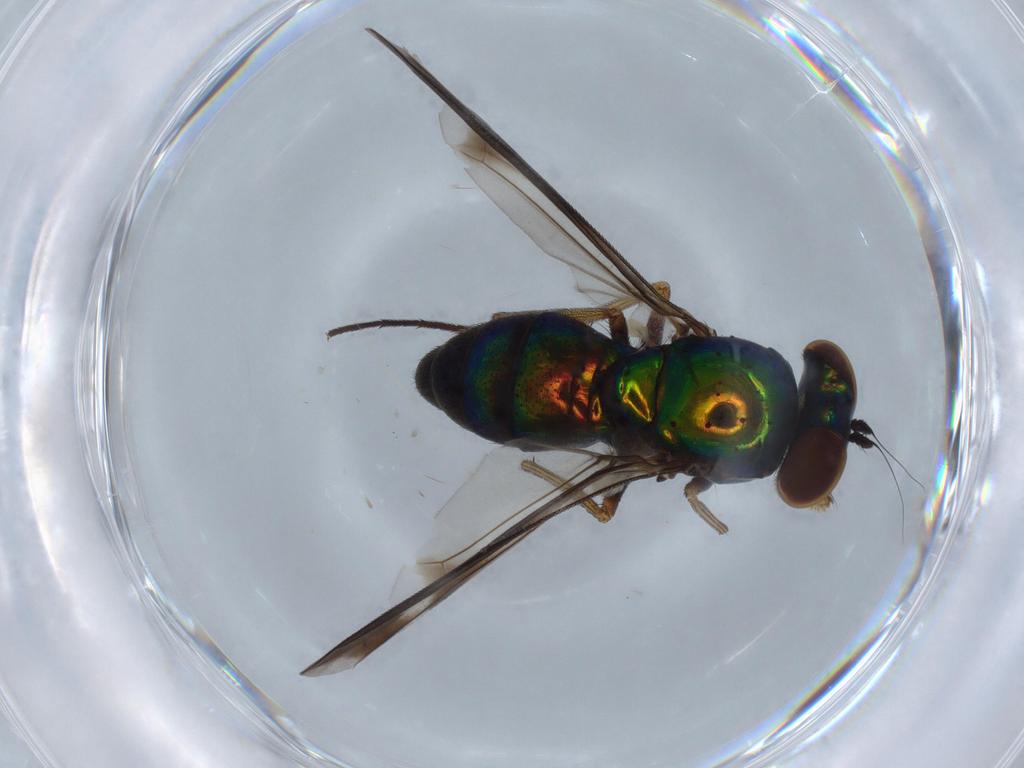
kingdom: Animalia
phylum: Arthropoda
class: Insecta
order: Diptera
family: Dolichopodidae
